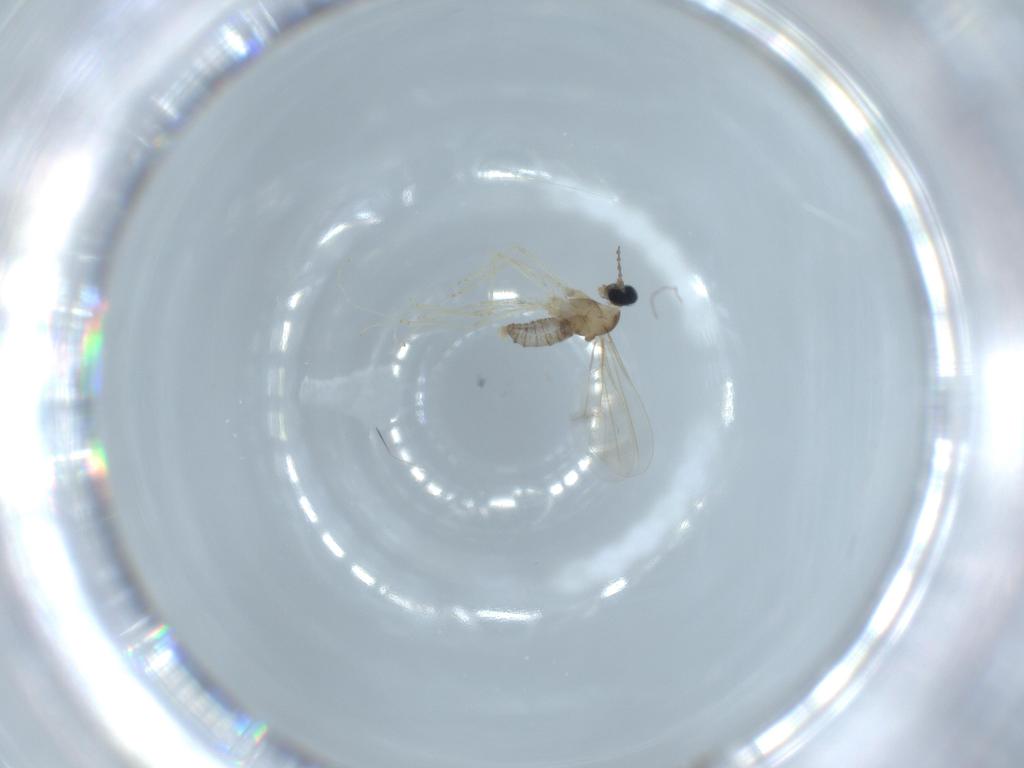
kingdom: Animalia
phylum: Arthropoda
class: Insecta
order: Diptera
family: Cecidomyiidae
